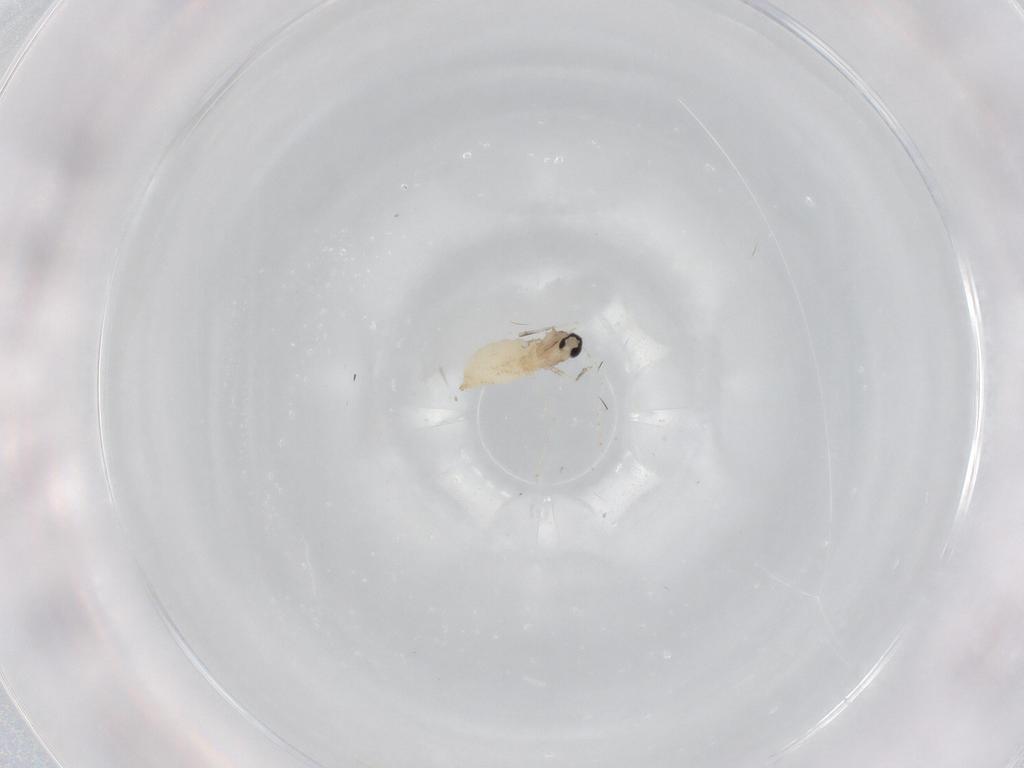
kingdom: Animalia
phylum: Arthropoda
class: Insecta
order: Diptera
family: Cecidomyiidae
